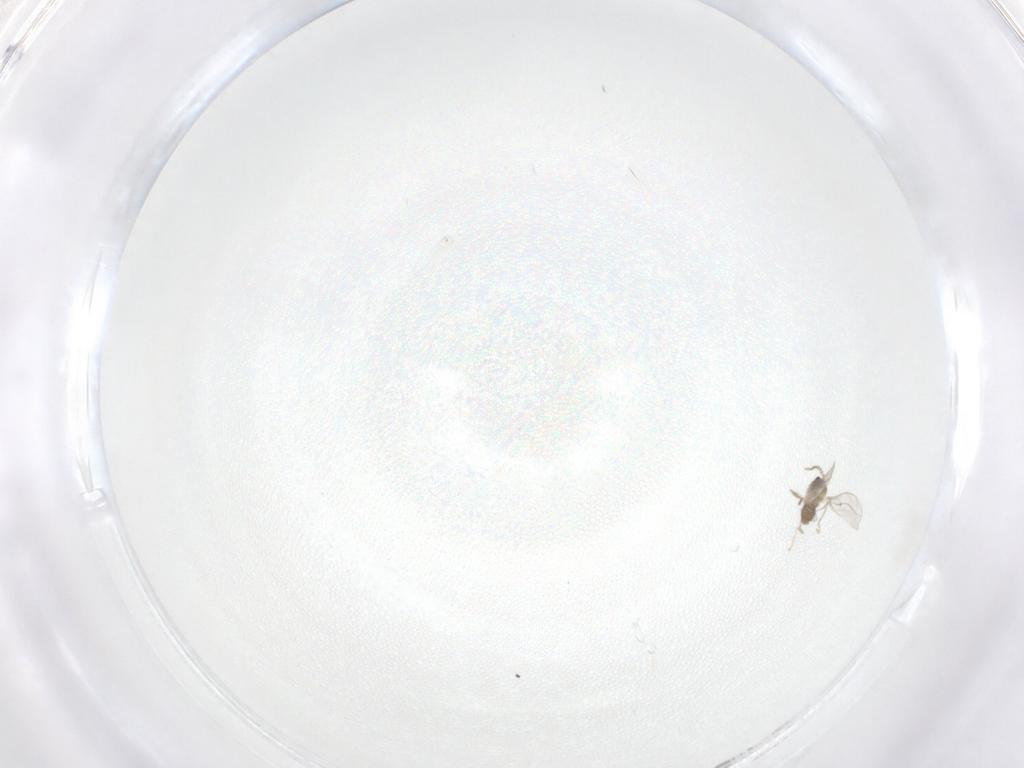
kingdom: Animalia
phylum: Arthropoda
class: Insecta
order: Diptera
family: Cecidomyiidae
